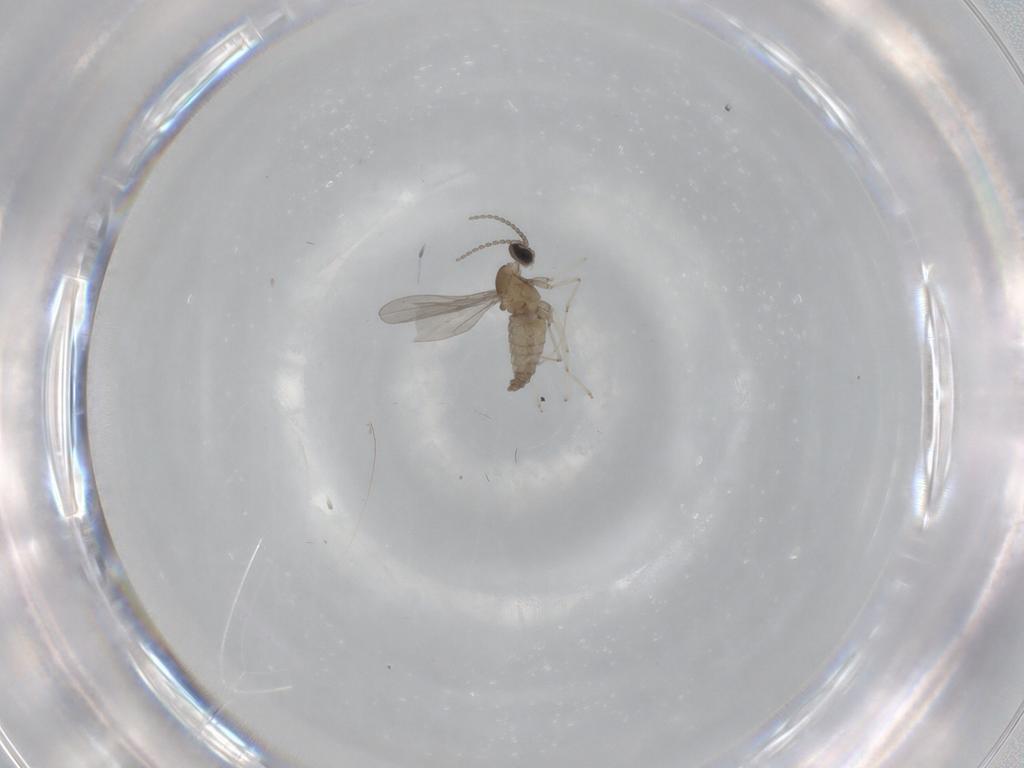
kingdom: Animalia
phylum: Arthropoda
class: Insecta
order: Diptera
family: Cecidomyiidae
